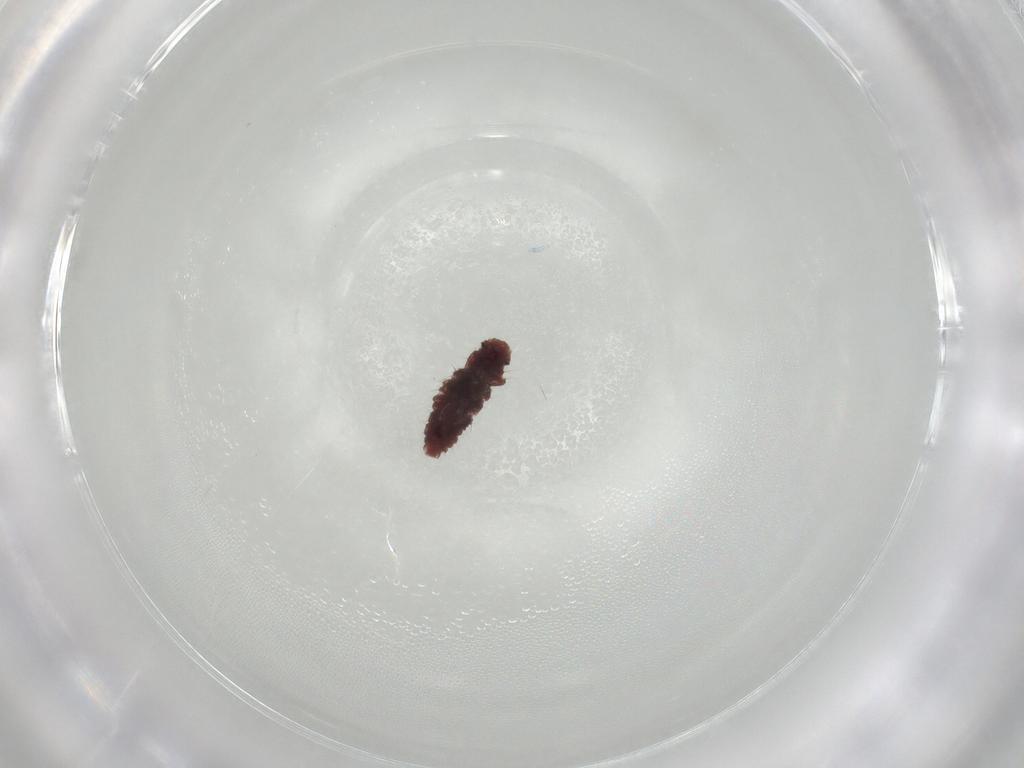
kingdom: Animalia
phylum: Arthropoda
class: Insecta
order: Coleoptera
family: Coccinellidae
